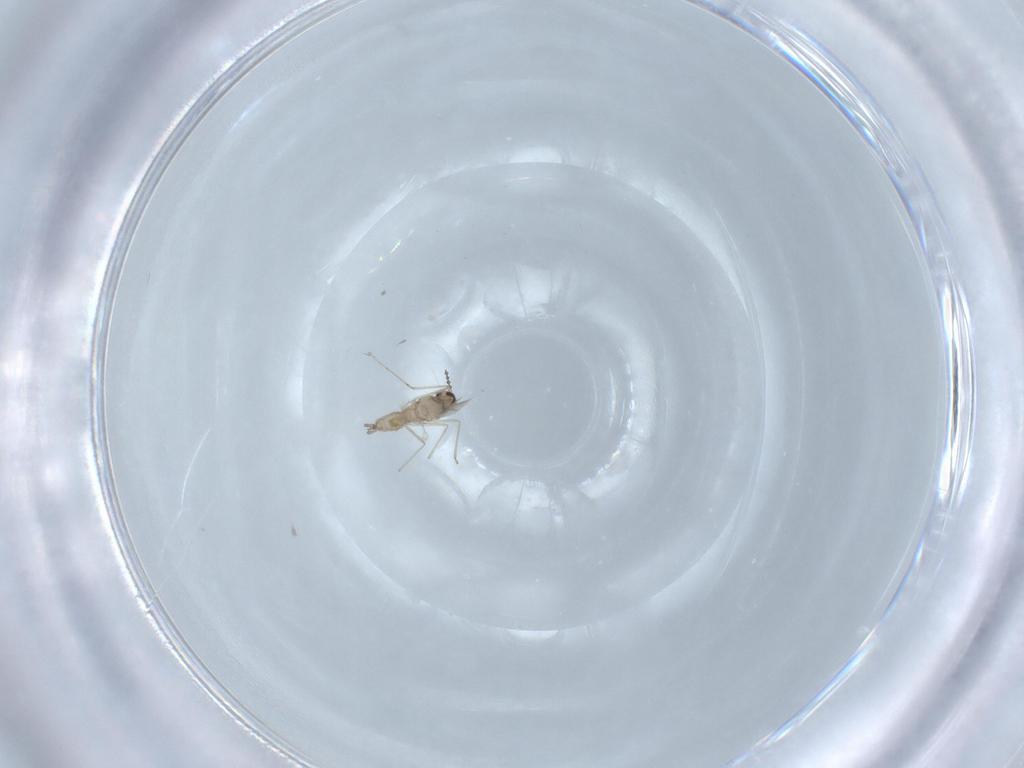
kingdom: Animalia
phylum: Arthropoda
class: Insecta
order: Diptera
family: Cecidomyiidae
